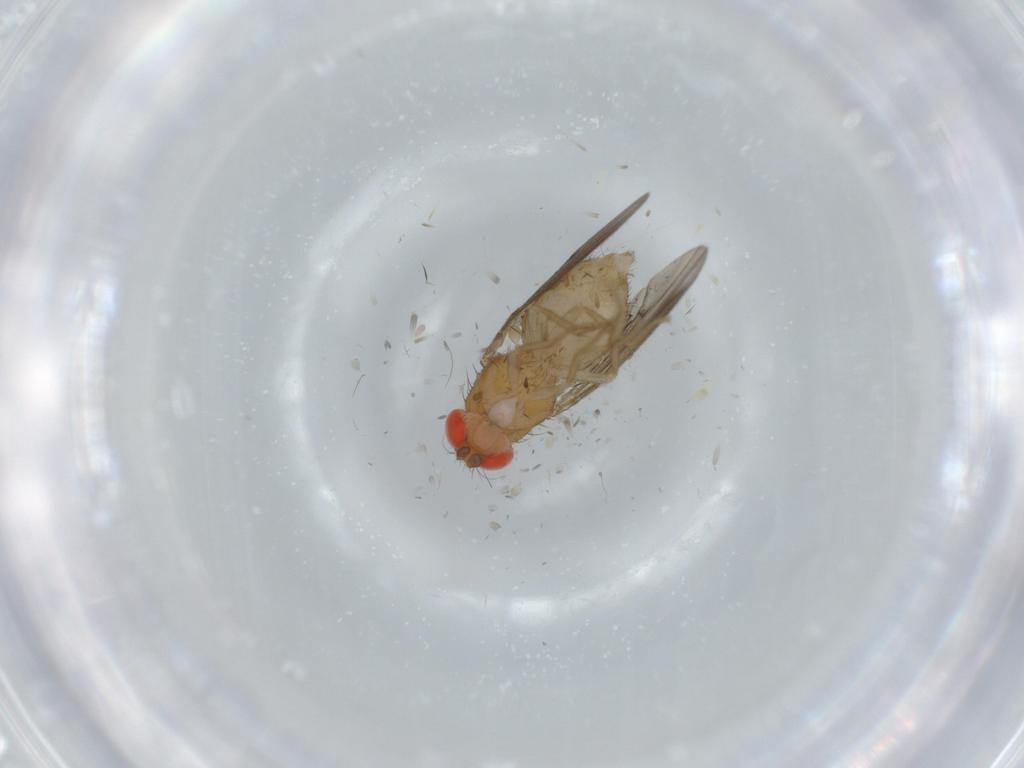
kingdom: Animalia
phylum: Arthropoda
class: Insecta
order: Diptera
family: Drosophilidae
